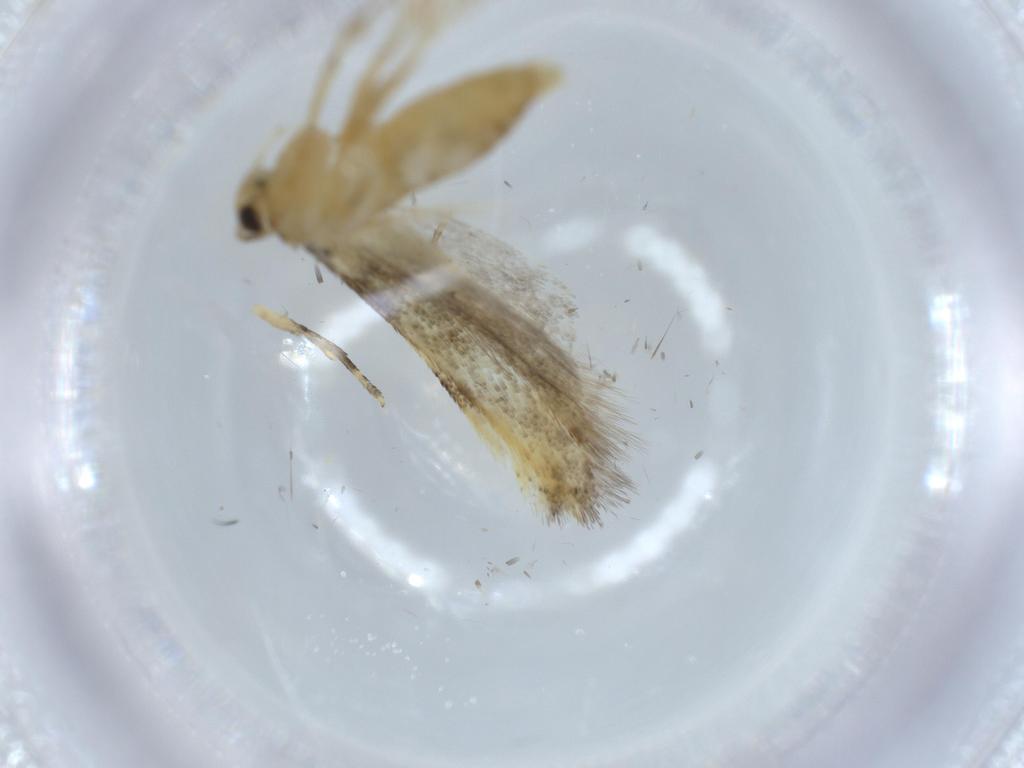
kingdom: Animalia
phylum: Arthropoda
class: Insecta
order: Lepidoptera
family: Autostichidae
